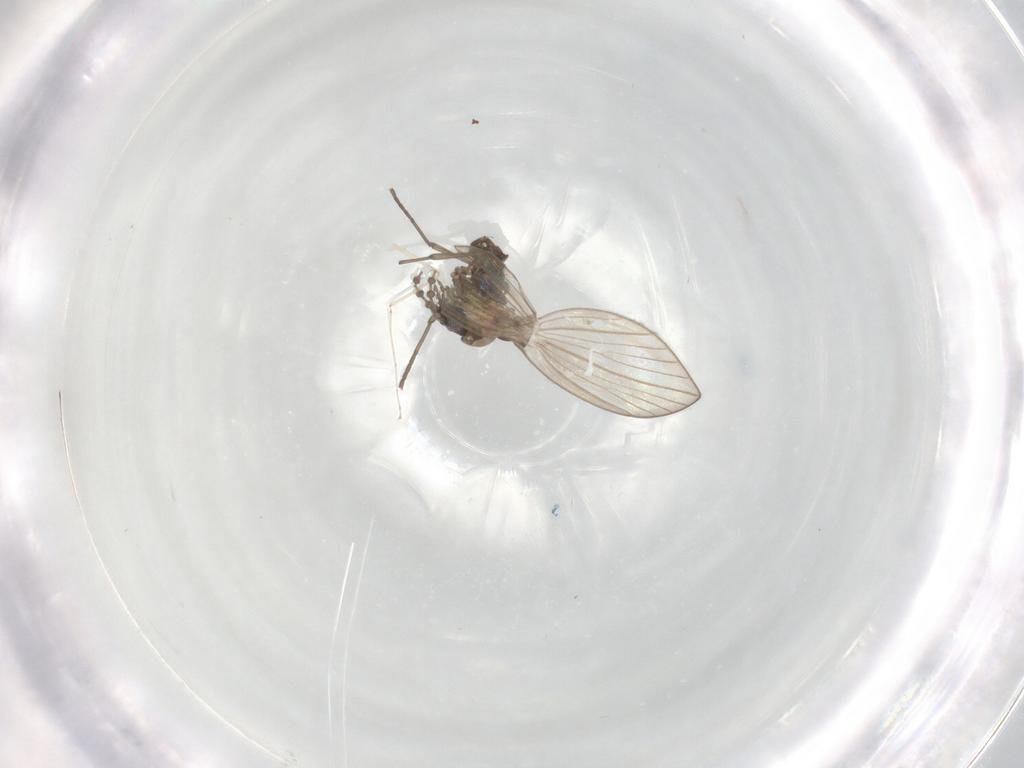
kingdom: Animalia
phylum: Arthropoda
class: Insecta
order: Diptera
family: Psychodidae
